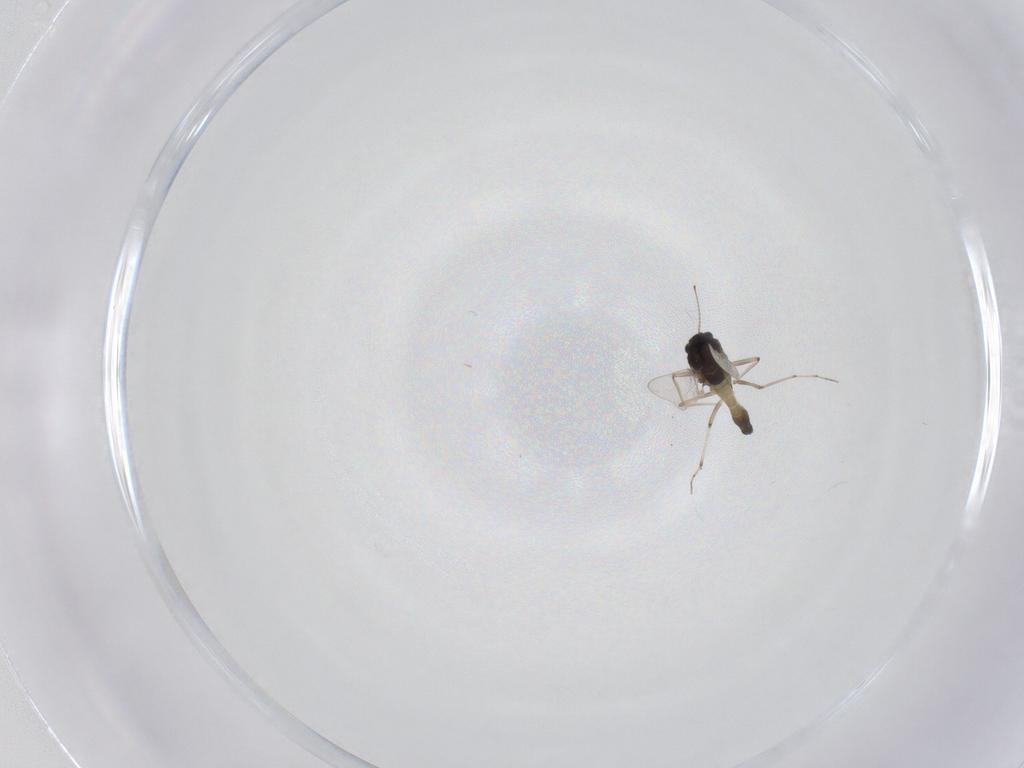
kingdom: Animalia
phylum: Arthropoda
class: Insecta
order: Diptera
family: Chironomidae
